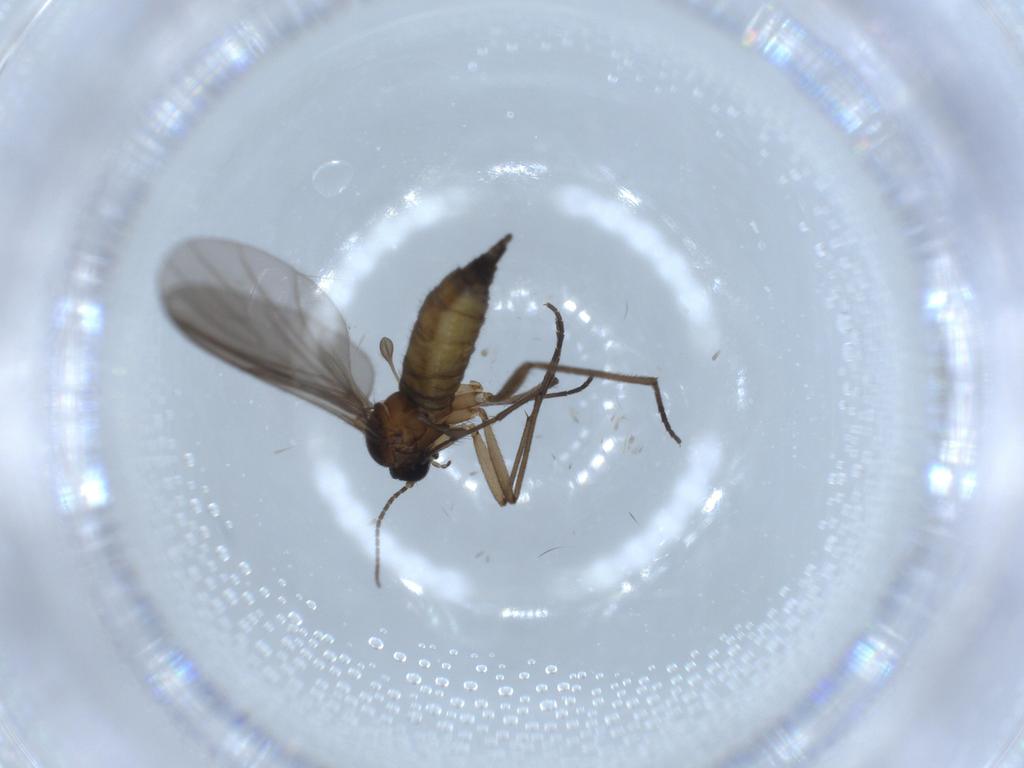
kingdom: Animalia
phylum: Arthropoda
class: Insecta
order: Diptera
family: Sciaridae
